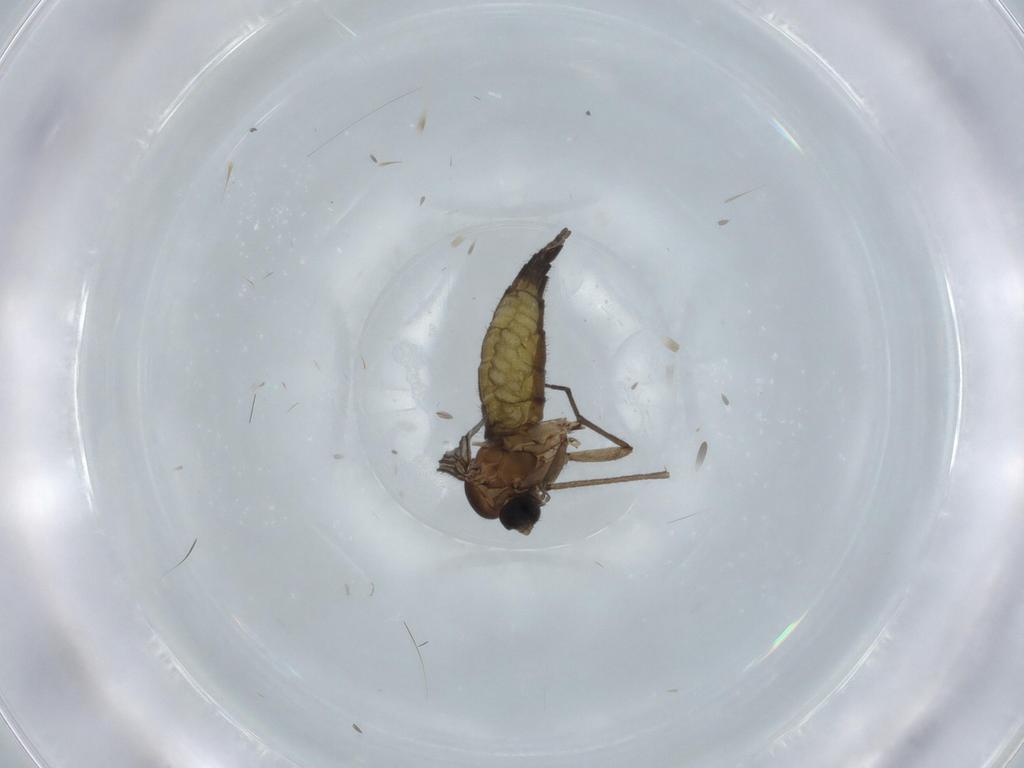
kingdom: Animalia
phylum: Arthropoda
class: Insecta
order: Diptera
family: Sciaridae
